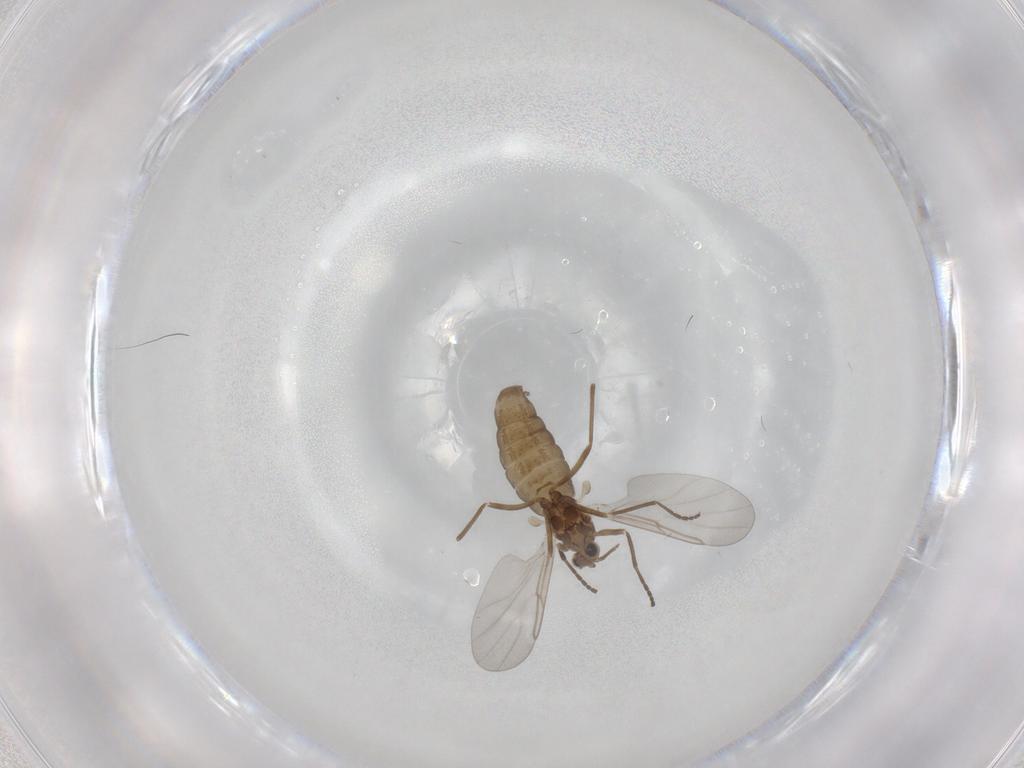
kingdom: Animalia
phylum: Arthropoda
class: Insecta
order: Diptera
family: Cecidomyiidae
